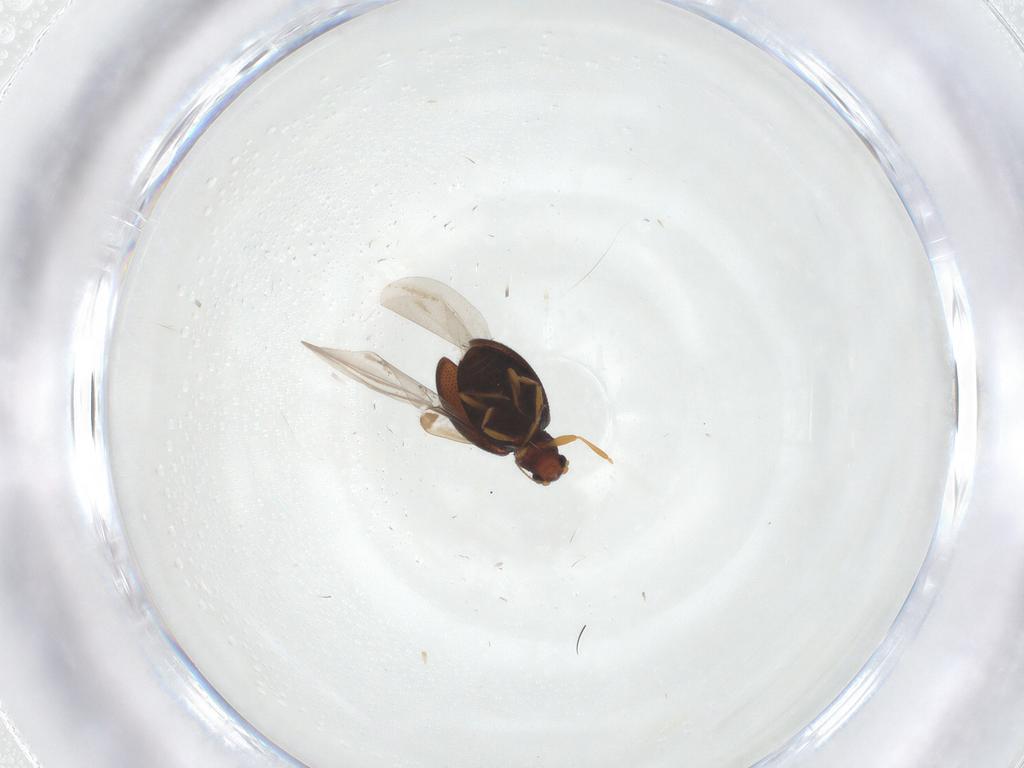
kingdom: Animalia
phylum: Arthropoda
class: Insecta
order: Coleoptera
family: Latridiidae
